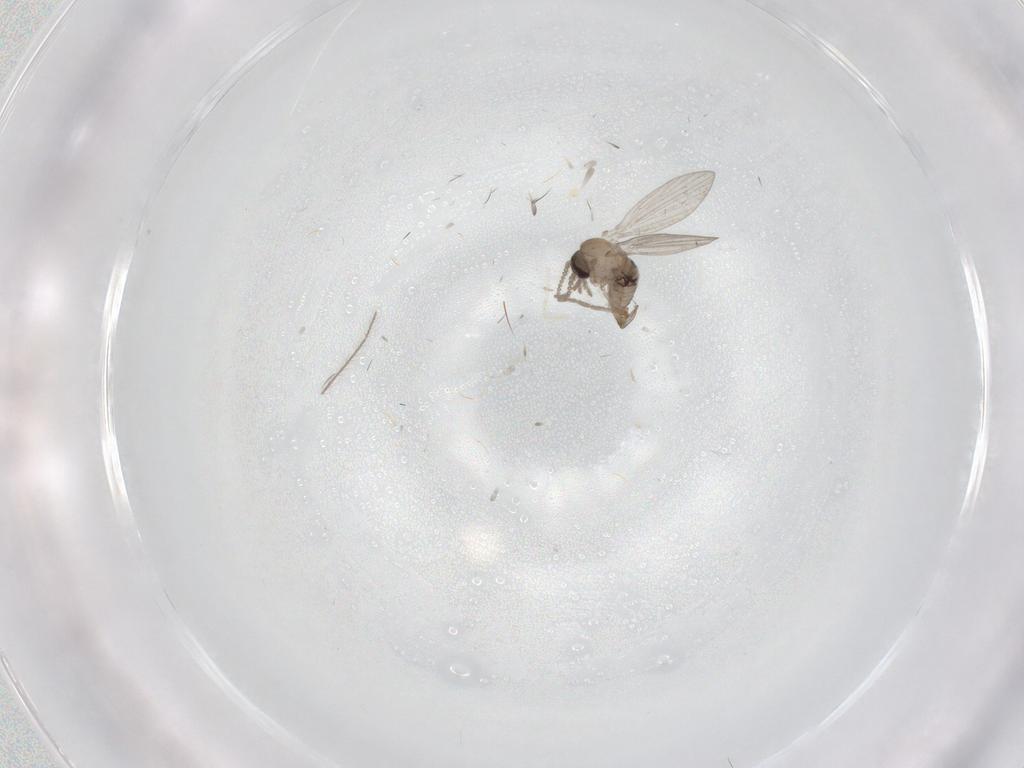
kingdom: Animalia
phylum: Arthropoda
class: Insecta
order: Diptera
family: Psychodidae
